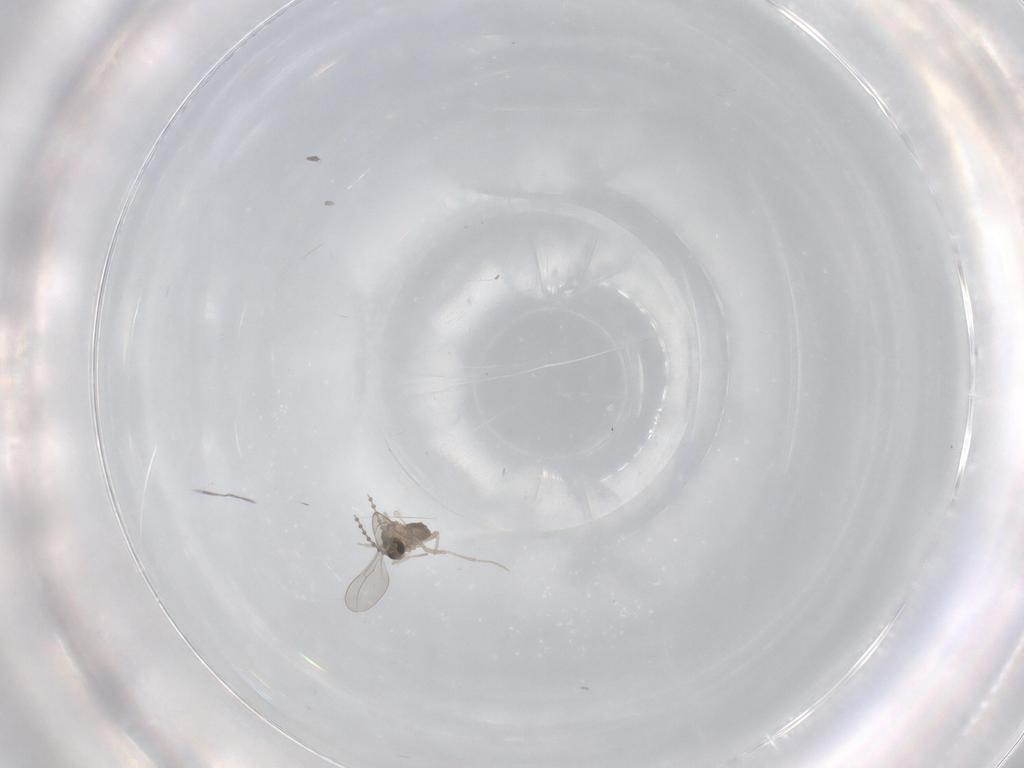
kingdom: Animalia
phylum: Arthropoda
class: Insecta
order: Diptera
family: Cecidomyiidae
